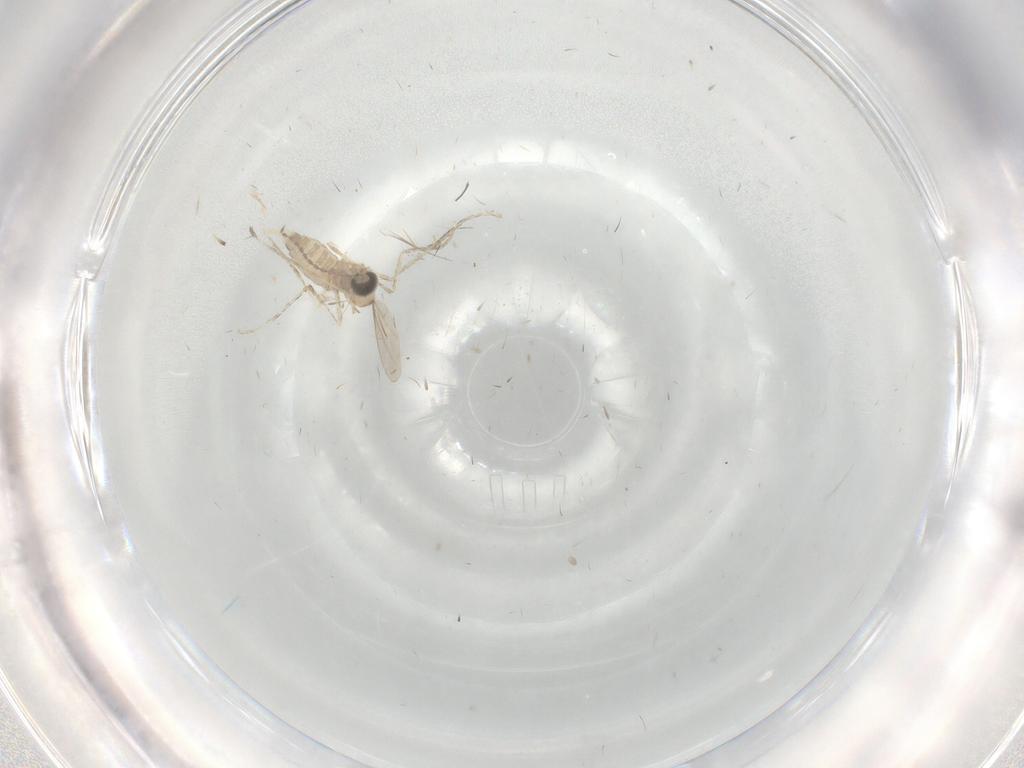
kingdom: Animalia
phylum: Arthropoda
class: Insecta
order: Diptera
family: Cecidomyiidae
